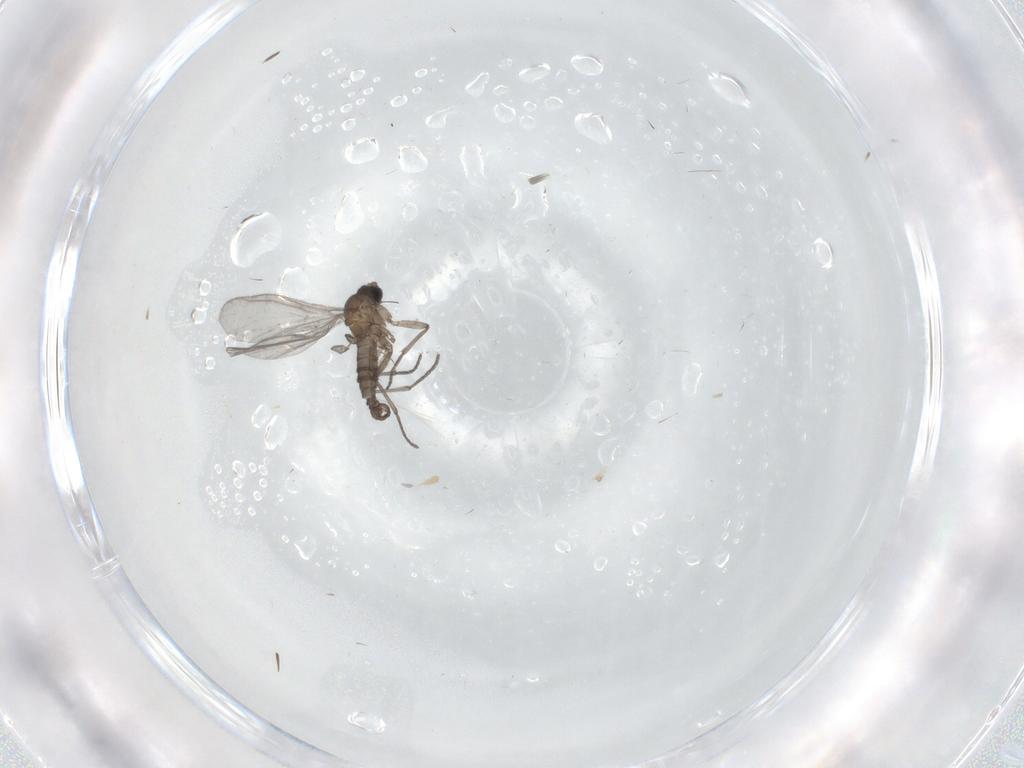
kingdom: Animalia
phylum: Arthropoda
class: Insecta
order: Diptera
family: Sciaridae
